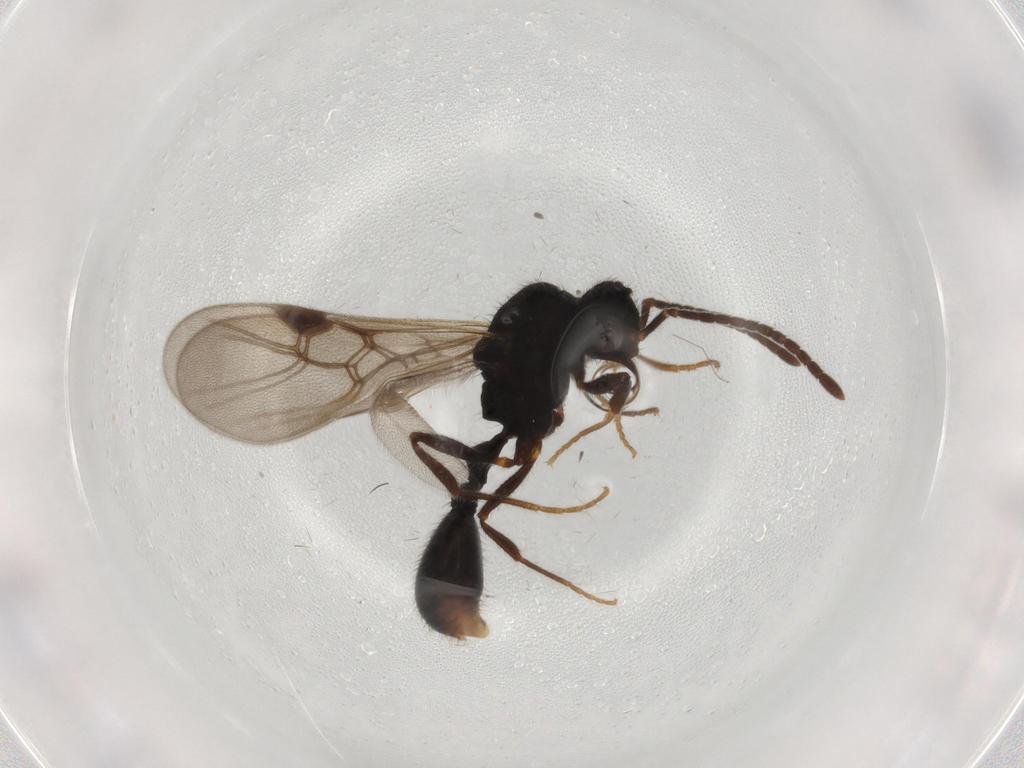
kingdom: Animalia
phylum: Arthropoda
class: Insecta
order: Hymenoptera
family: Formicidae
